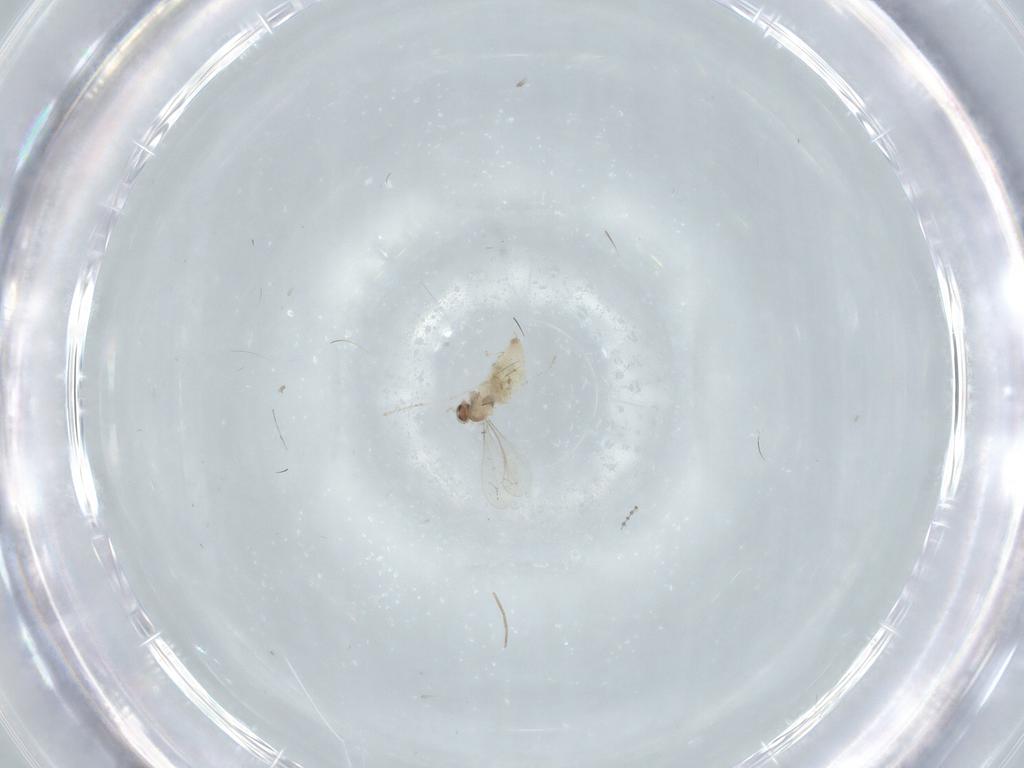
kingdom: Animalia
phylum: Arthropoda
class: Insecta
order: Diptera
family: Cecidomyiidae
